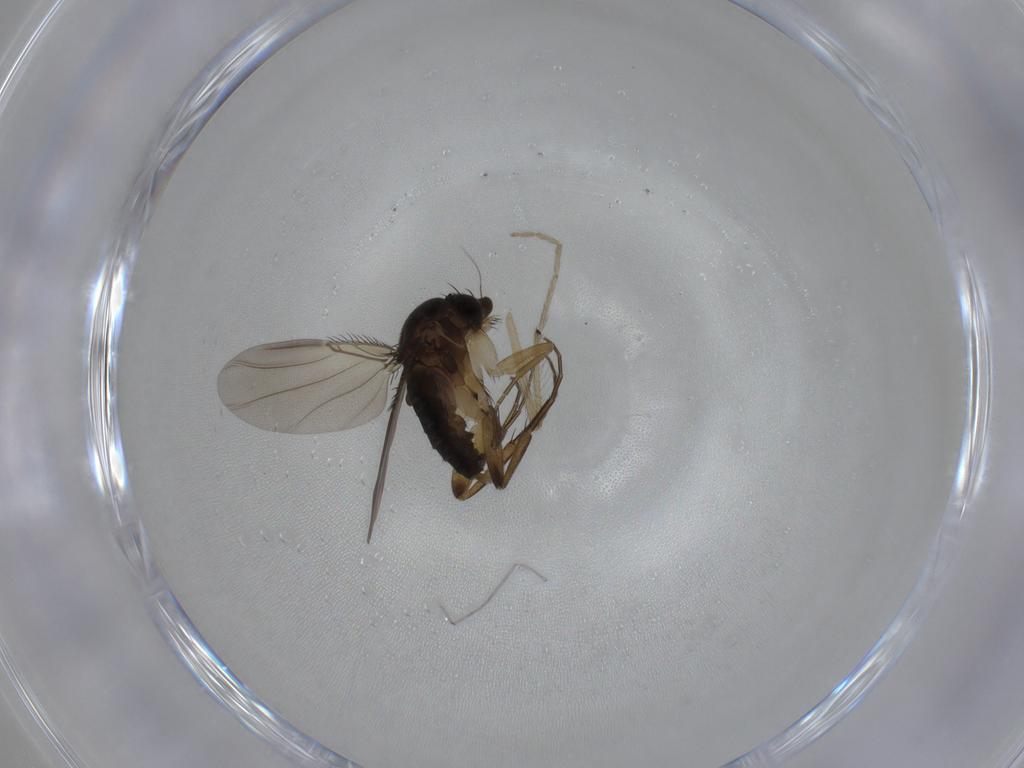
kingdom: Animalia
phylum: Arthropoda
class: Insecta
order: Diptera
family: Phoridae
